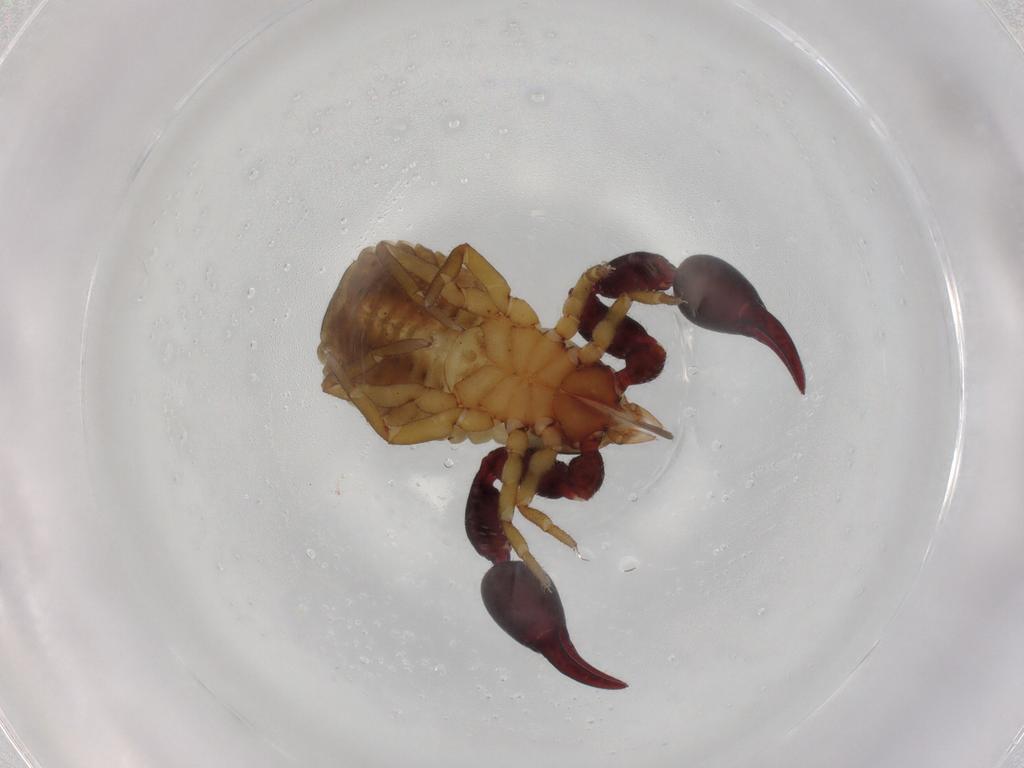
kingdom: Animalia
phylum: Arthropoda
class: Arachnida
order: Pseudoscorpiones
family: Chernetidae
